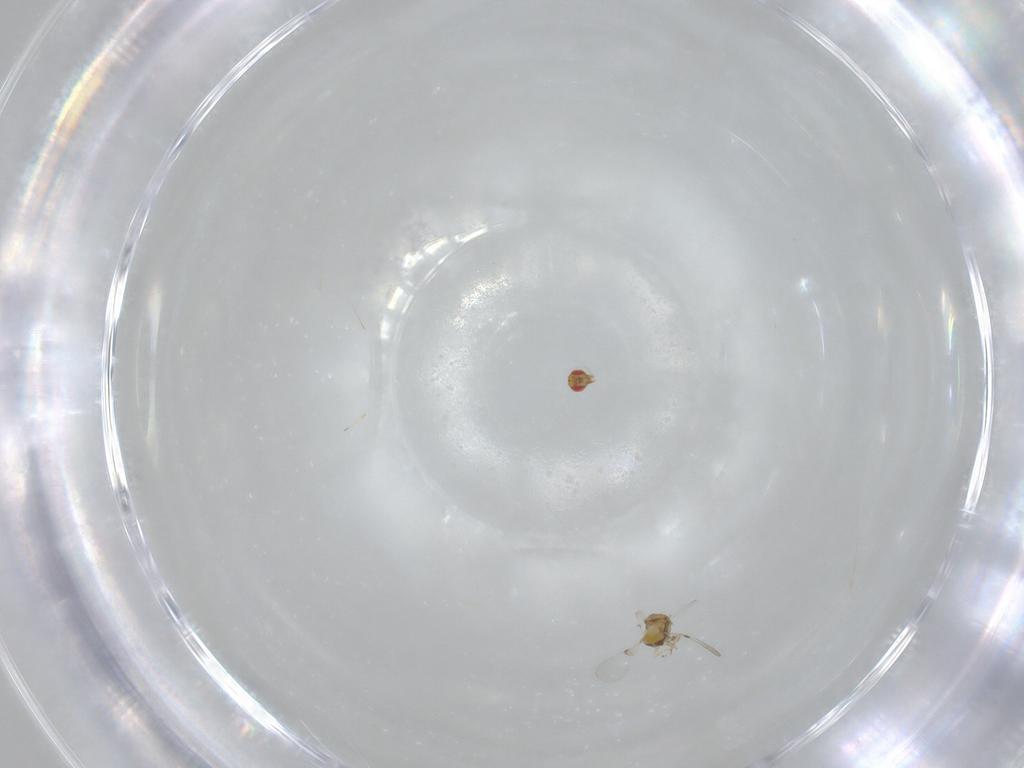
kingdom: Animalia
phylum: Arthropoda
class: Insecta
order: Hymenoptera
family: Trichogrammatidae
